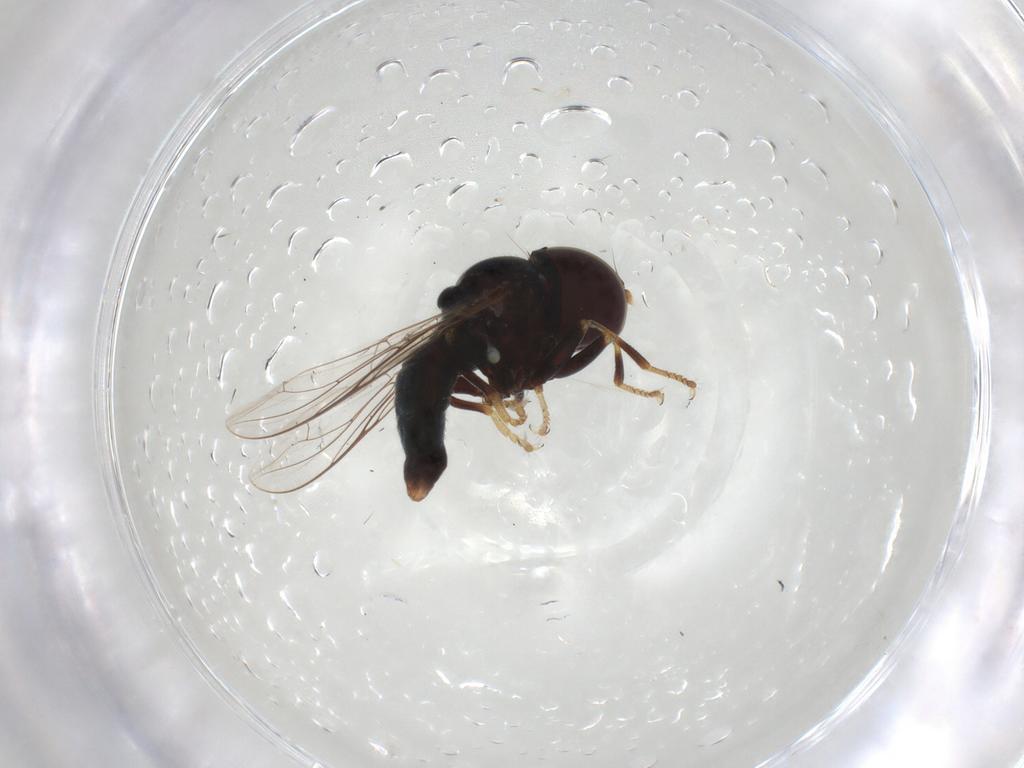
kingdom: Animalia
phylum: Arthropoda
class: Insecta
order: Diptera
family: Pipunculidae
